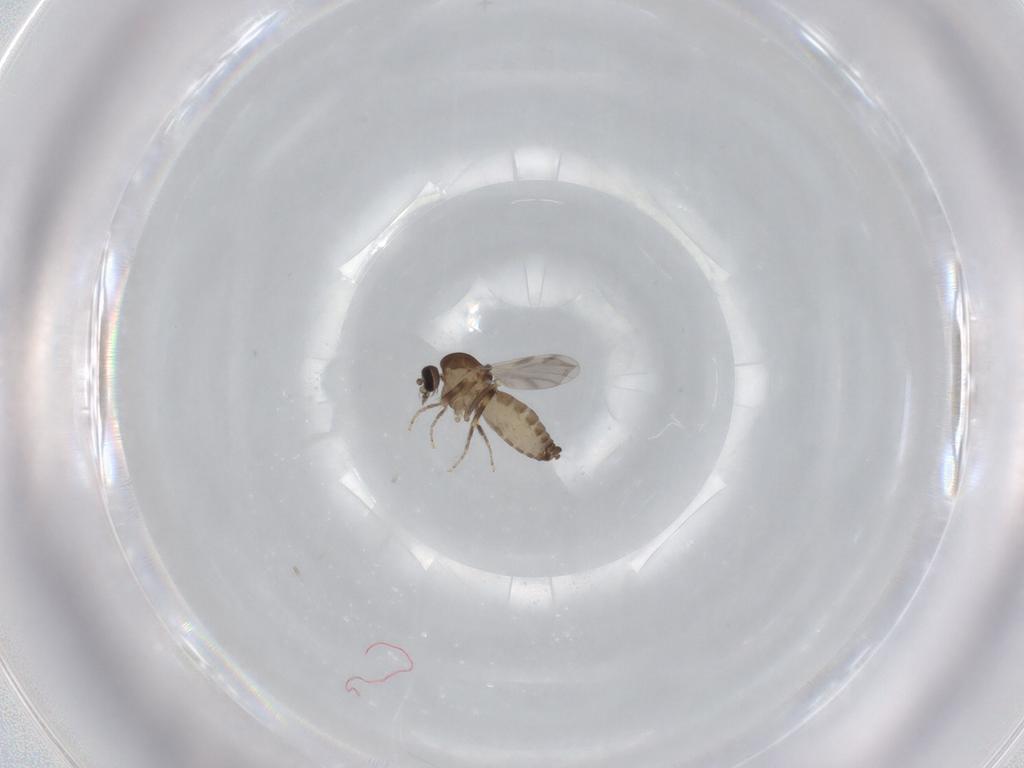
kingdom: Animalia
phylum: Arthropoda
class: Insecta
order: Diptera
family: Ceratopogonidae
